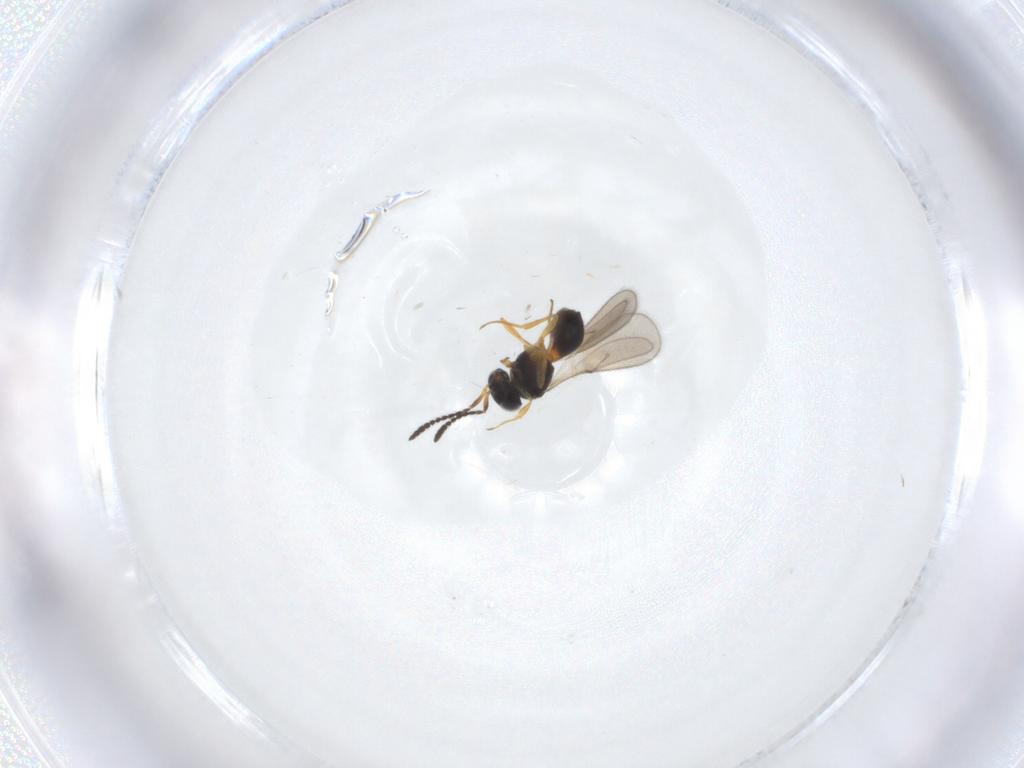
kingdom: Animalia
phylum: Arthropoda
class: Insecta
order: Hymenoptera
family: Scelionidae
